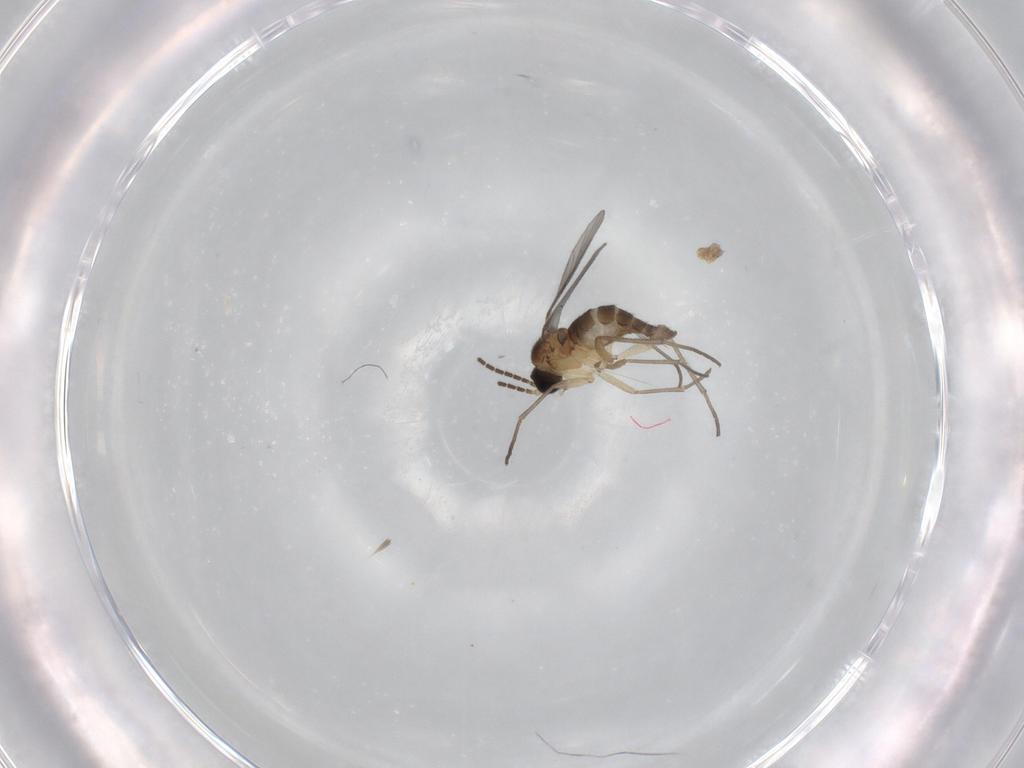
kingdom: Animalia
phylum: Arthropoda
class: Insecta
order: Diptera
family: Sciaridae
